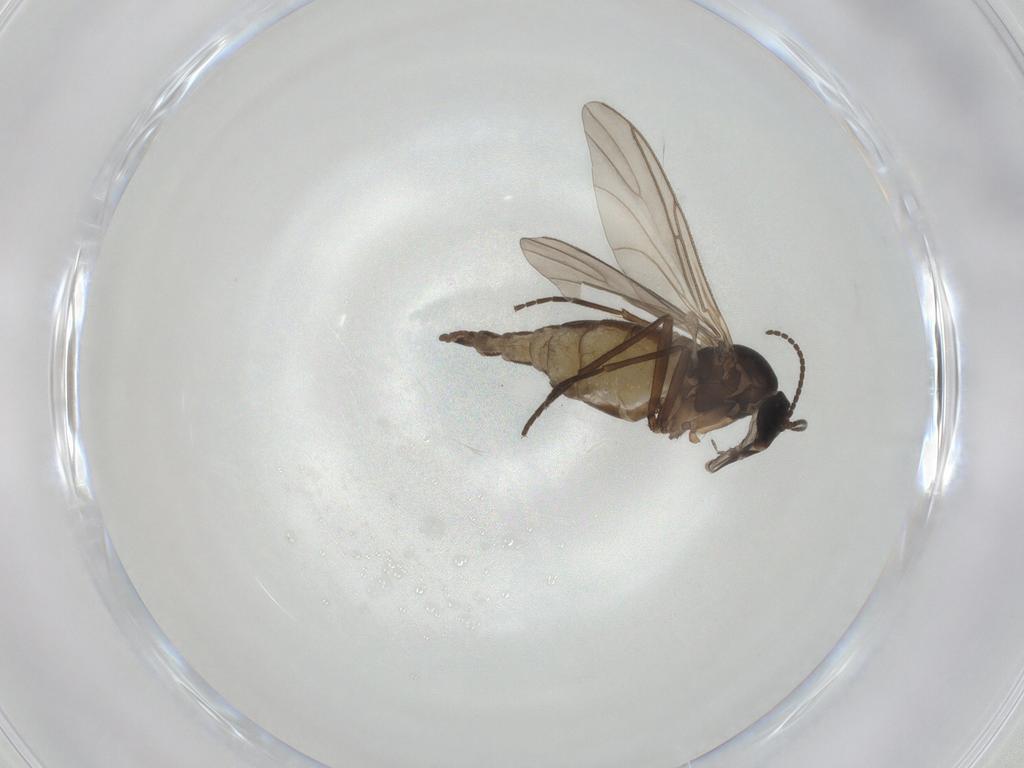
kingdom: Animalia
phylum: Arthropoda
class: Insecta
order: Diptera
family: Sciaridae
